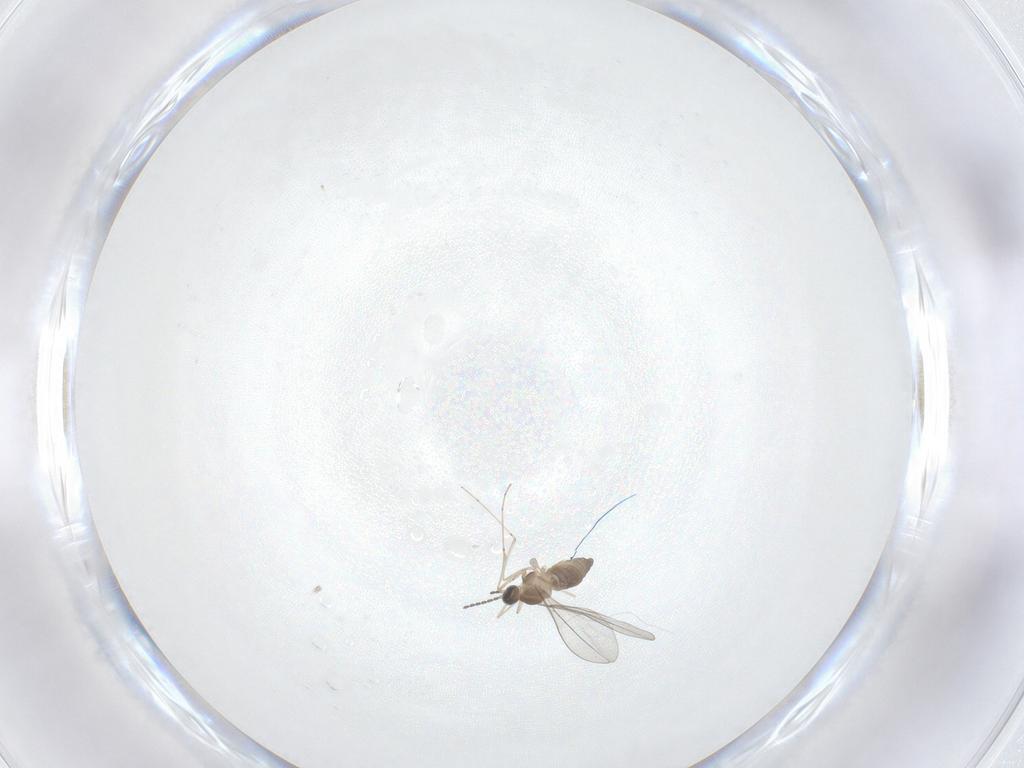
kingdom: Animalia
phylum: Arthropoda
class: Insecta
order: Diptera
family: Cecidomyiidae
